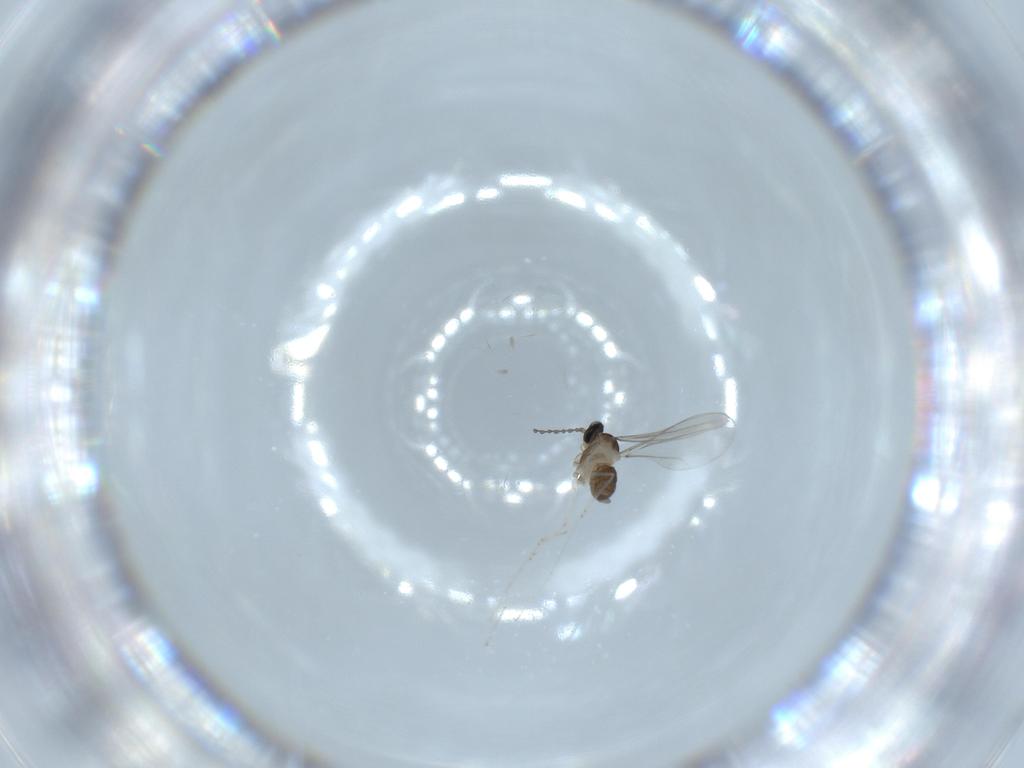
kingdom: Animalia
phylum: Arthropoda
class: Insecta
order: Diptera
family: Cecidomyiidae
